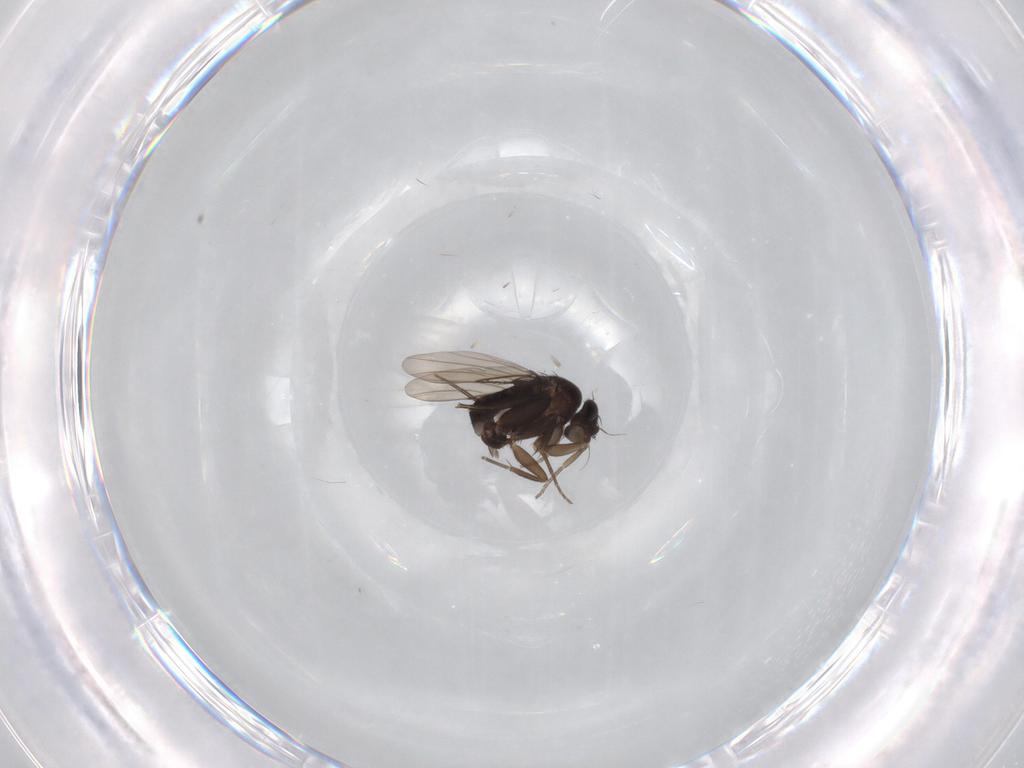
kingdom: Animalia
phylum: Arthropoda
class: Insecta
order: Diptera
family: Phoridae
